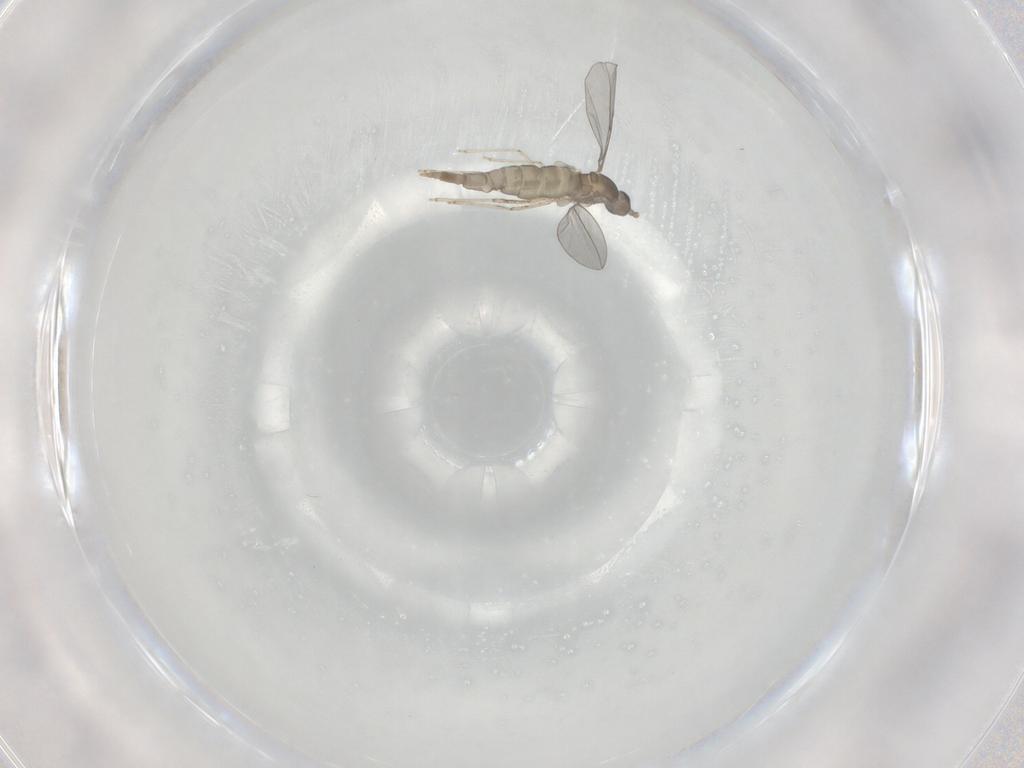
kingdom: Animalia
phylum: Arthropoda
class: Insecta
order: Diptera
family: Cecidomyiidae
